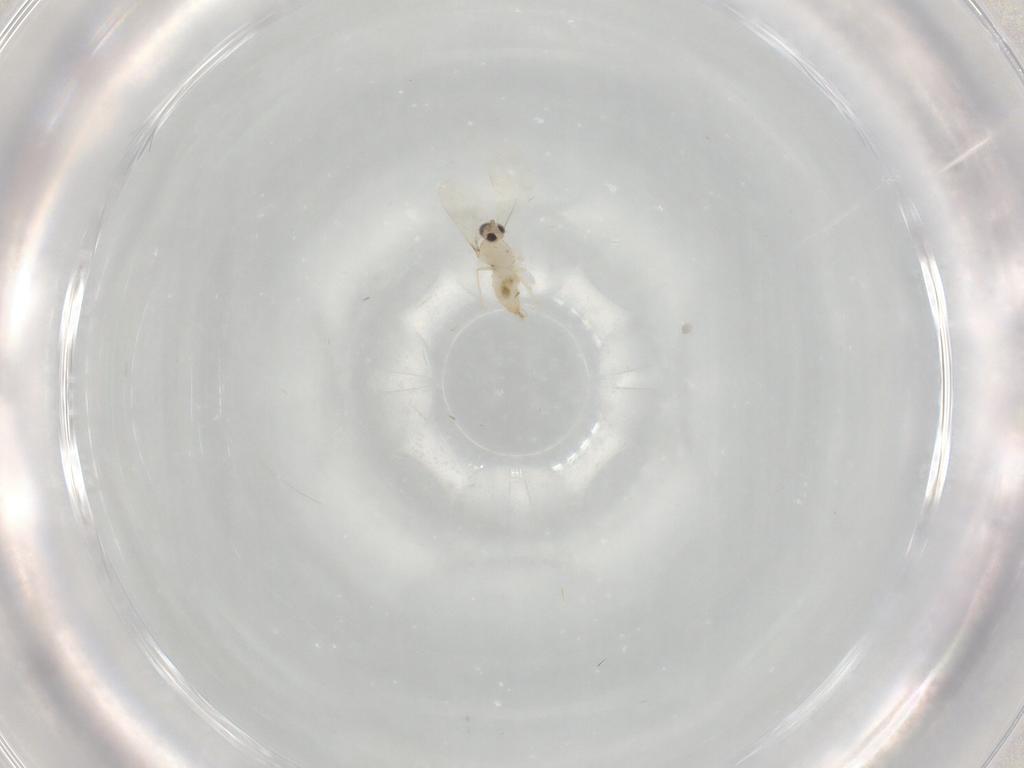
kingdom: Animalia
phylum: Arthropoda
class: Insecta
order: Diptera
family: Cecidomyiidae
